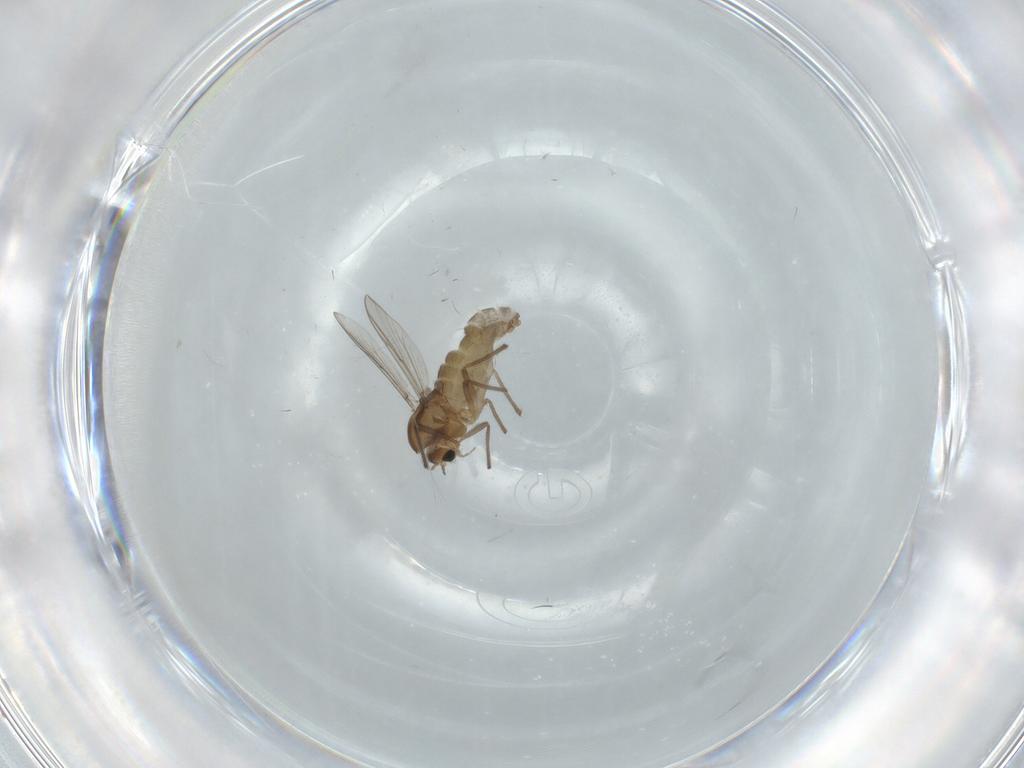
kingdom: Animalia
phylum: Arthropoda
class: Insecta
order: Diptera
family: Chironomidae
